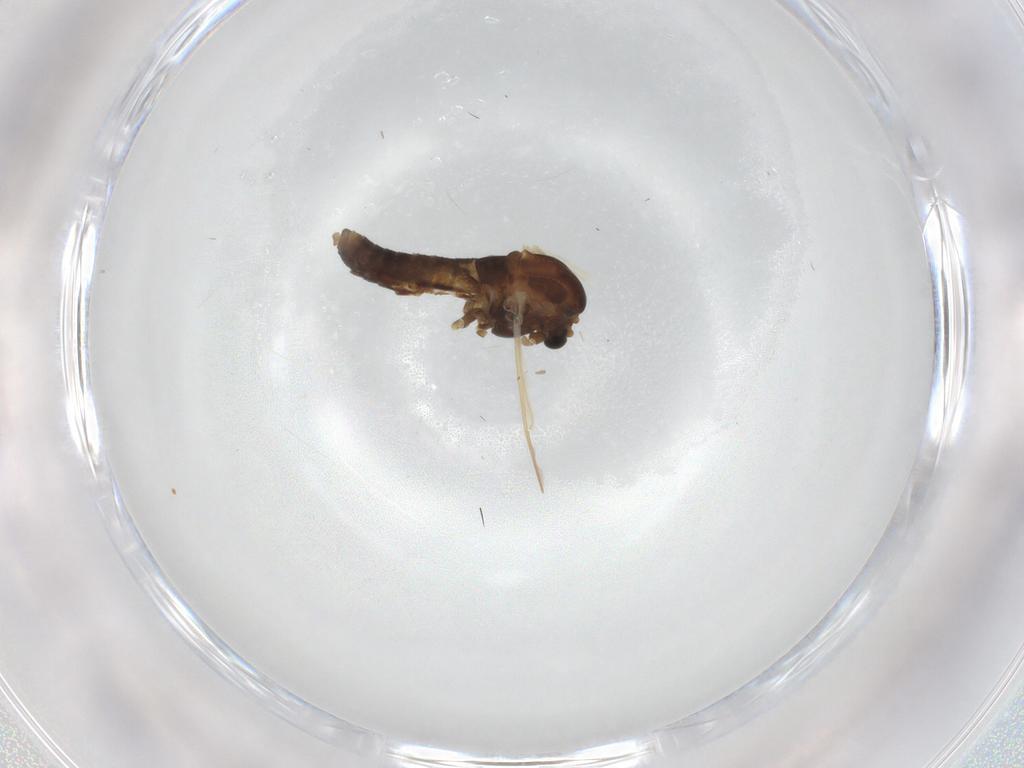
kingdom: Animalia
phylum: Arthropoda
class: Insecta
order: Diptera
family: Chironomidae
